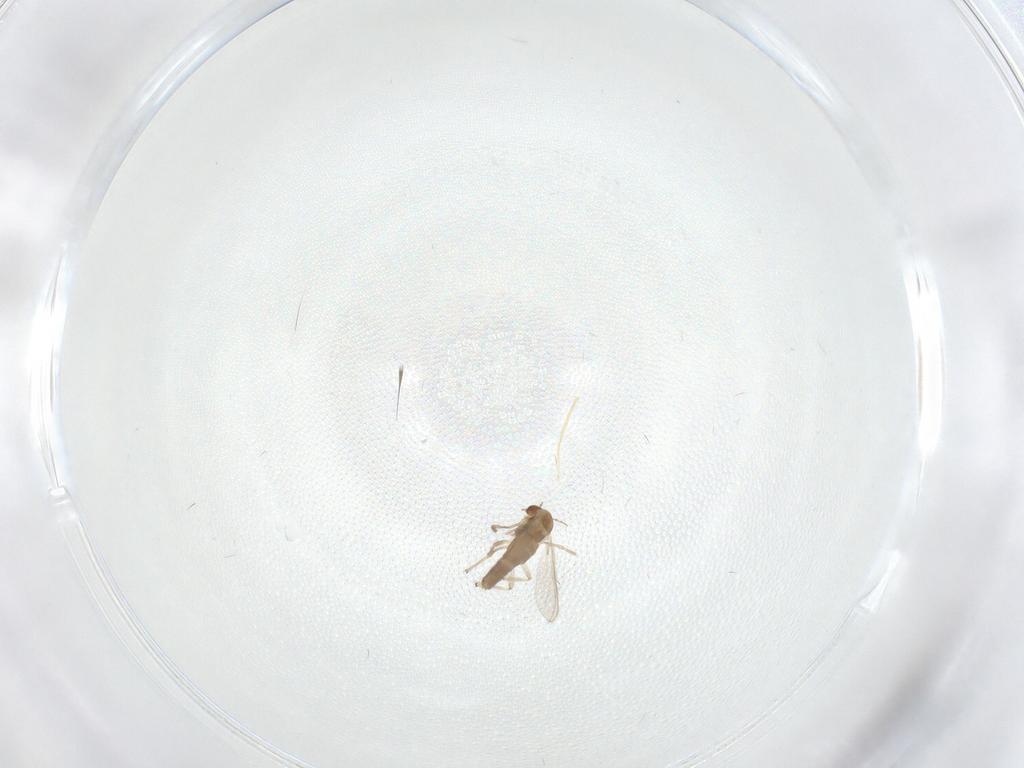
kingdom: Animalia
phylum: Arthropoda
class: Insecta
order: Diptera
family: Chironomidae
